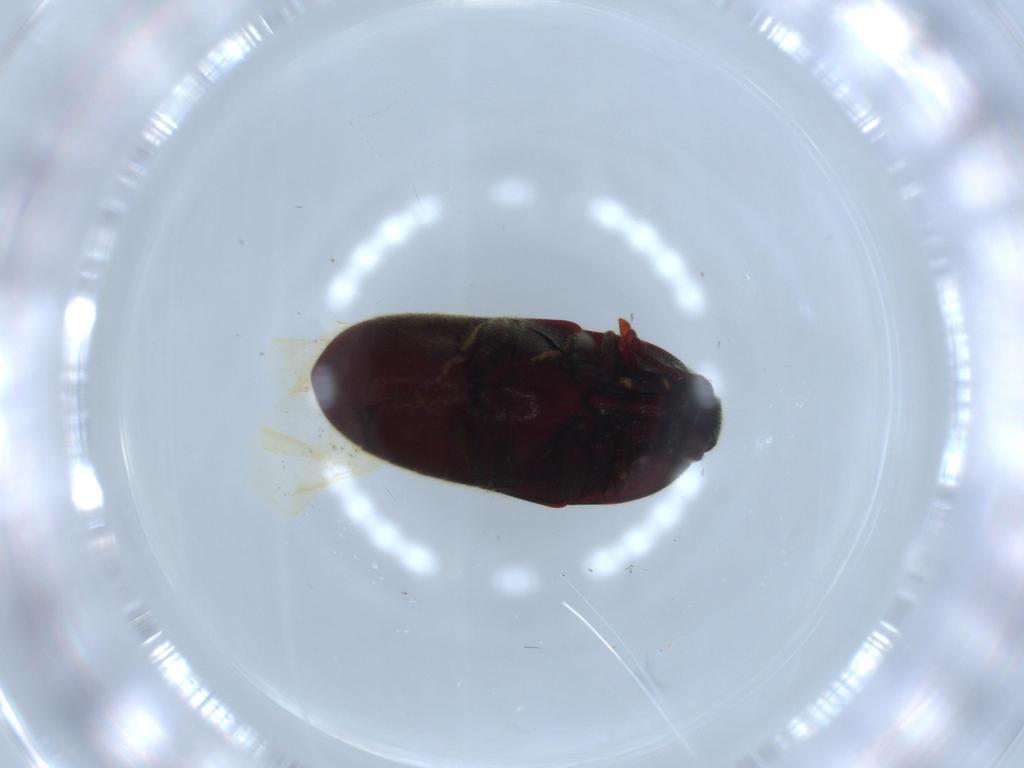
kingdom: Animalia
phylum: Arthropoda
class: Insecta
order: Coleoptera
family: Throscidae
